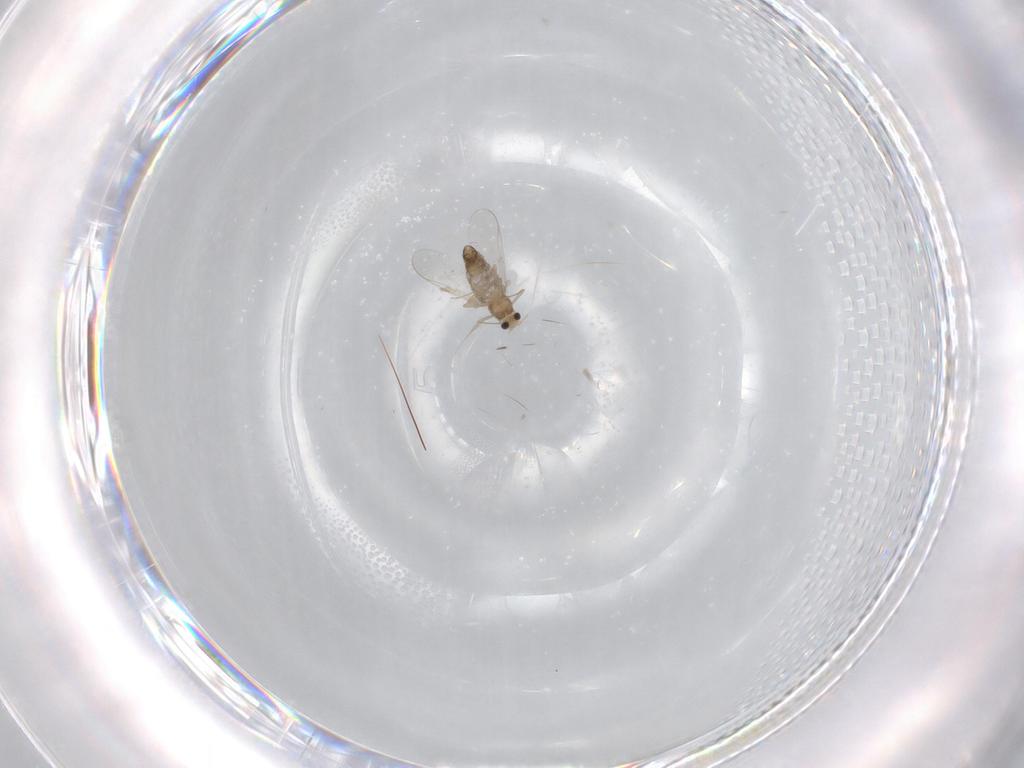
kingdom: Animalia
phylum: Arthropoda
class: Insecta
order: Diptera
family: Chironomidae
